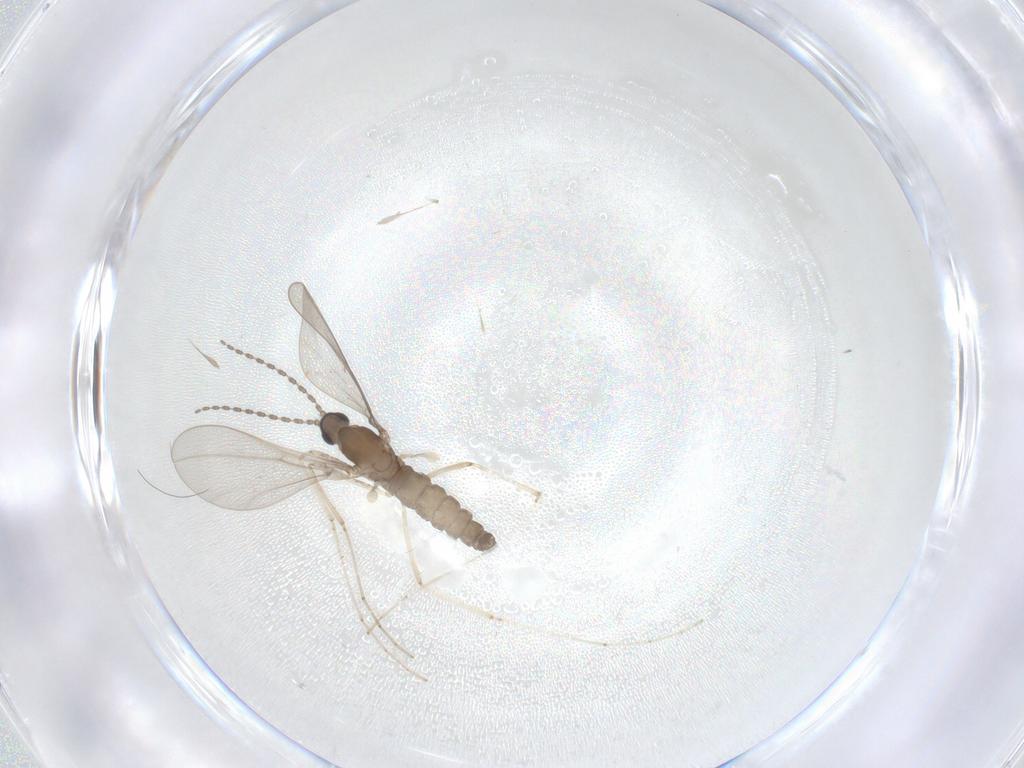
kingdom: Animalia
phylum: Arthropoda
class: Insecta
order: Diptera
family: Cecidomyiidae
